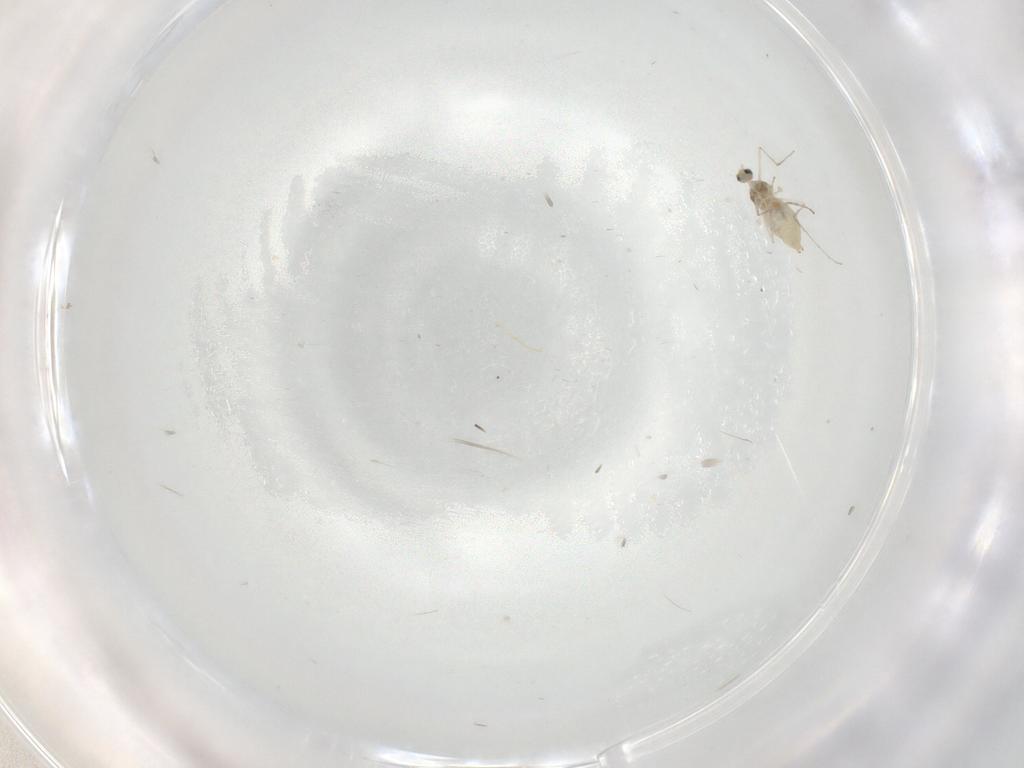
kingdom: Animalia
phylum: Arthropoda
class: Insecta
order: Diptera
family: Cecidomyiidae
